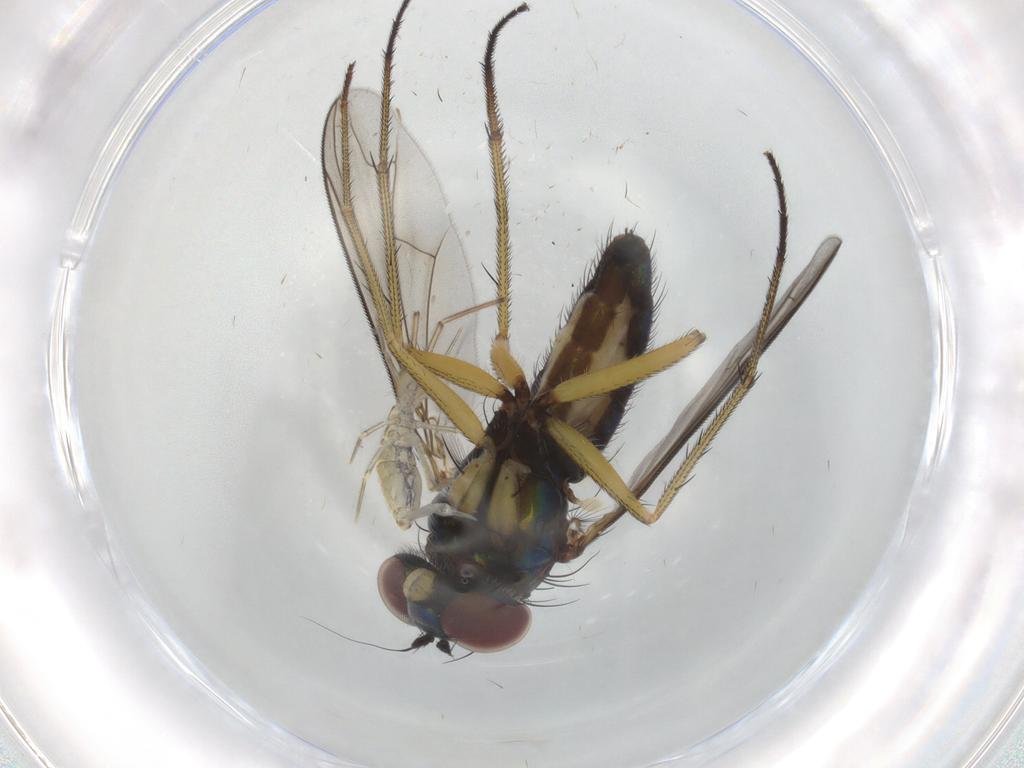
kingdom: Animalia
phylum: Arthropoda
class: Insecta
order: Diptera
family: Dolichopodidae
